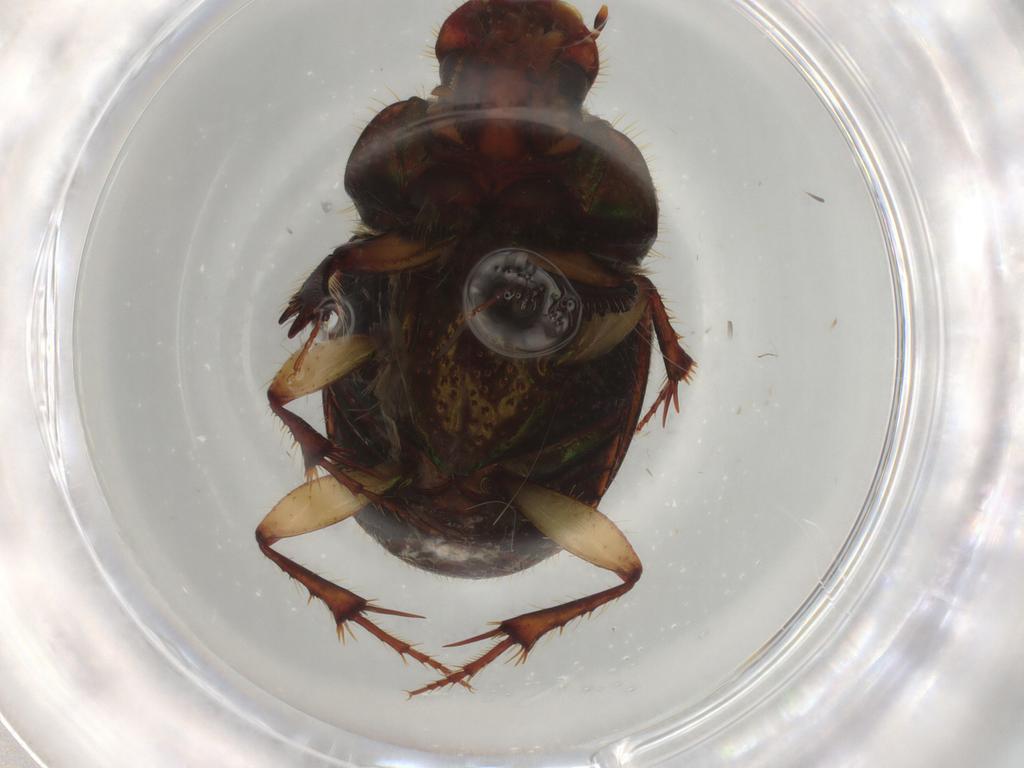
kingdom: Animalia
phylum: Arthropoda
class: Insecta
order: Coleoptera
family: Scarabaeidae
